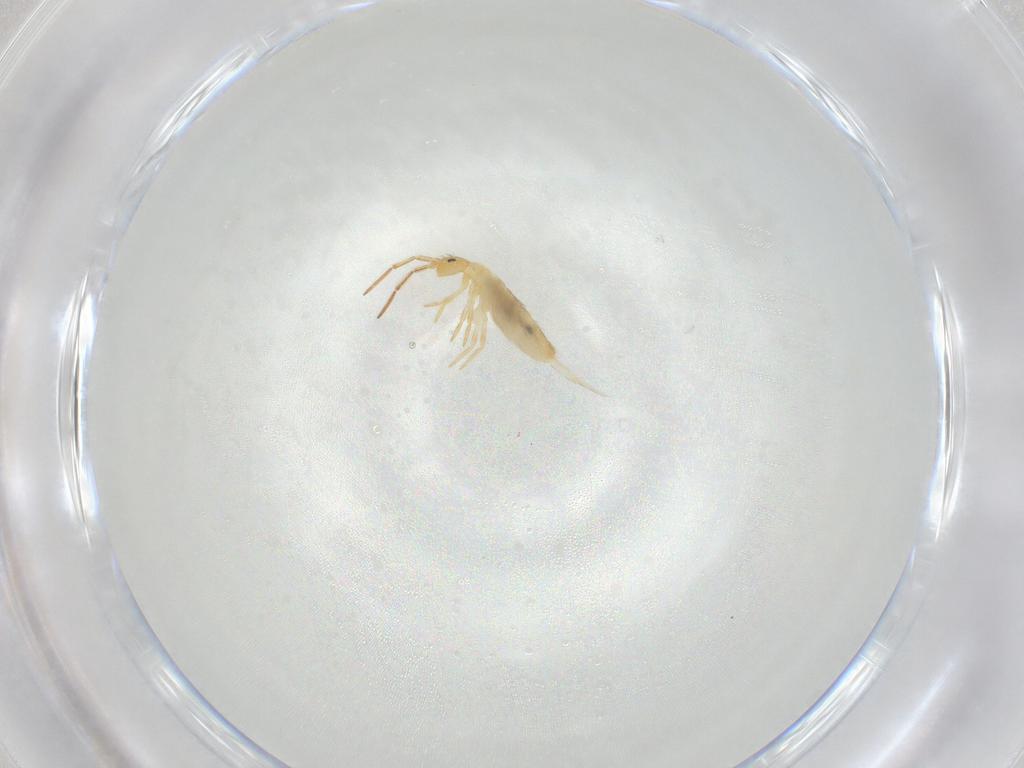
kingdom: Animalia
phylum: Arthropoda
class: Collembola
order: Entomobryomorpha
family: Entomobryidae
